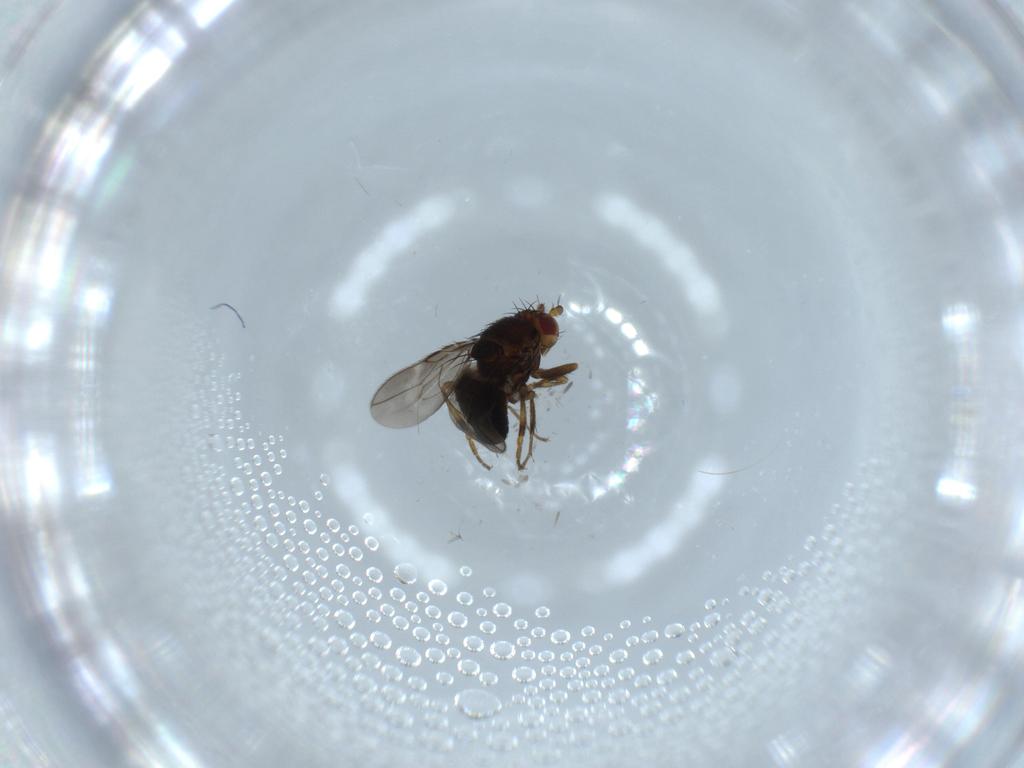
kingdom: Animalia
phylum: Arthropoda
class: Insecta
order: Diptera
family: Sphaeroceridae
